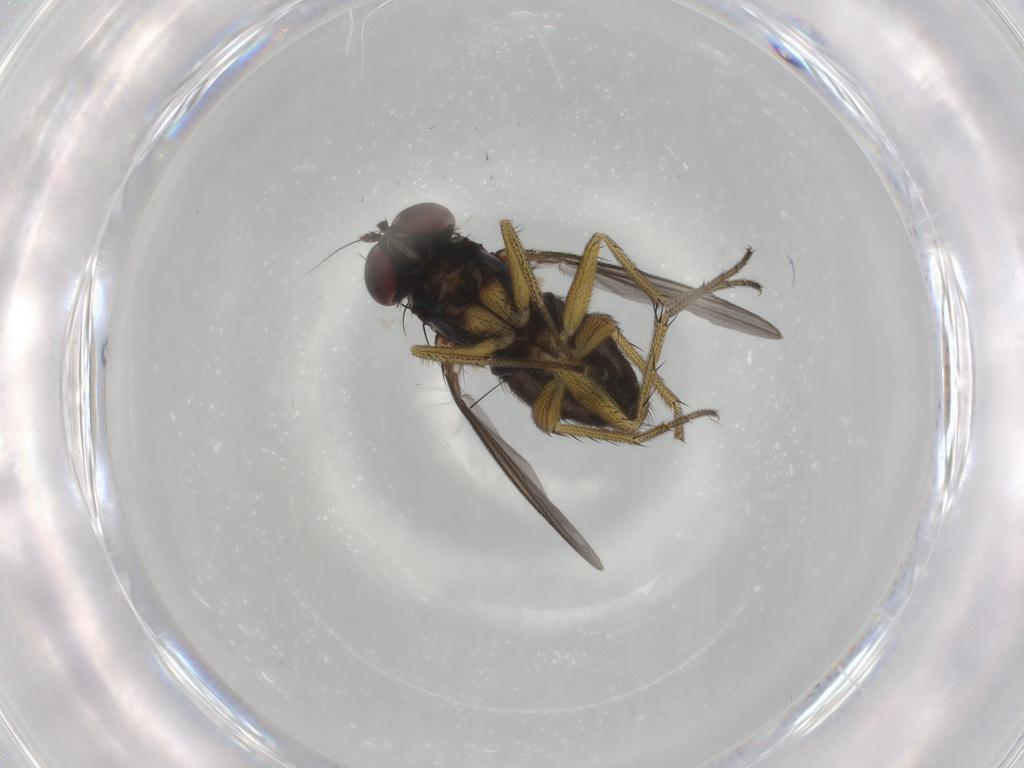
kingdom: Animalia
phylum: Arthropoda
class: Insecta
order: Diptera
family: Dolichopodidae
